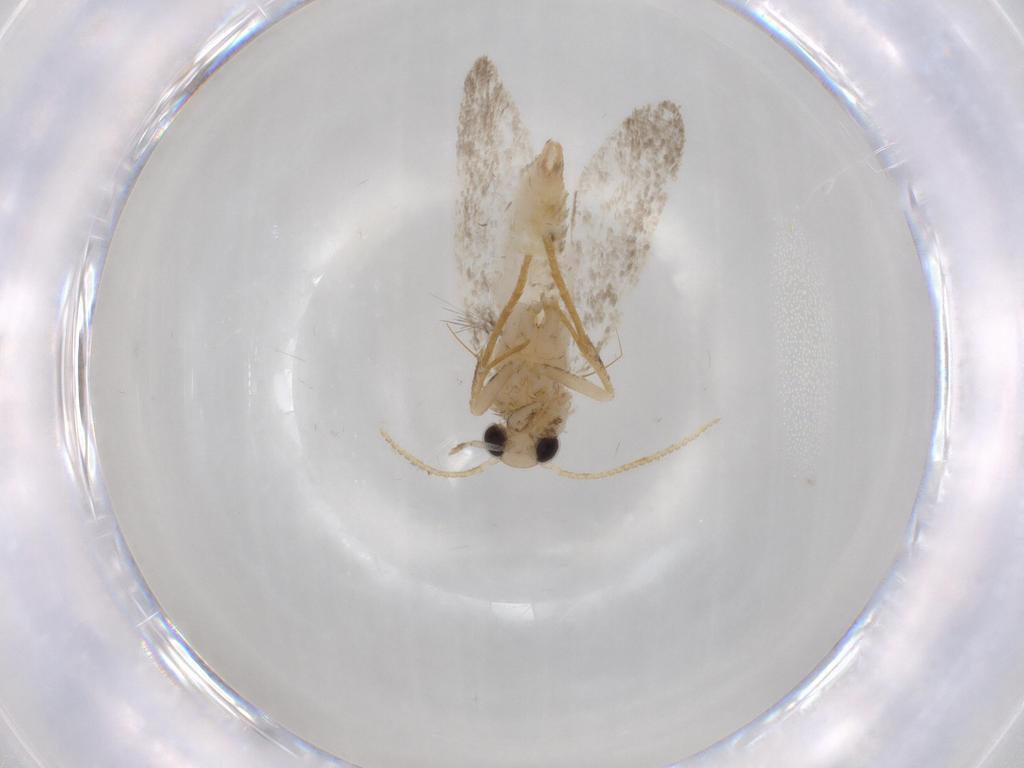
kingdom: Animalia
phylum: Arthropoda
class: Insecta
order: Lepidoptera
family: Psychidae
